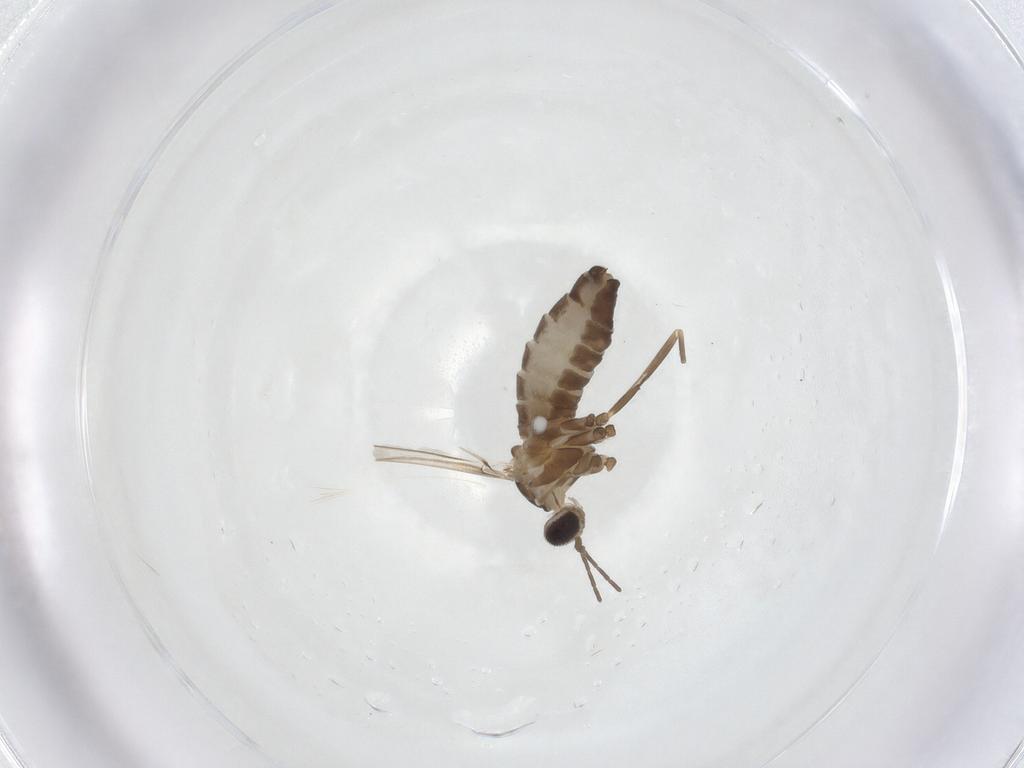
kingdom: Animalia
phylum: Arthropoda
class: Insecta
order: Diptera
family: Cecidomyiidae
